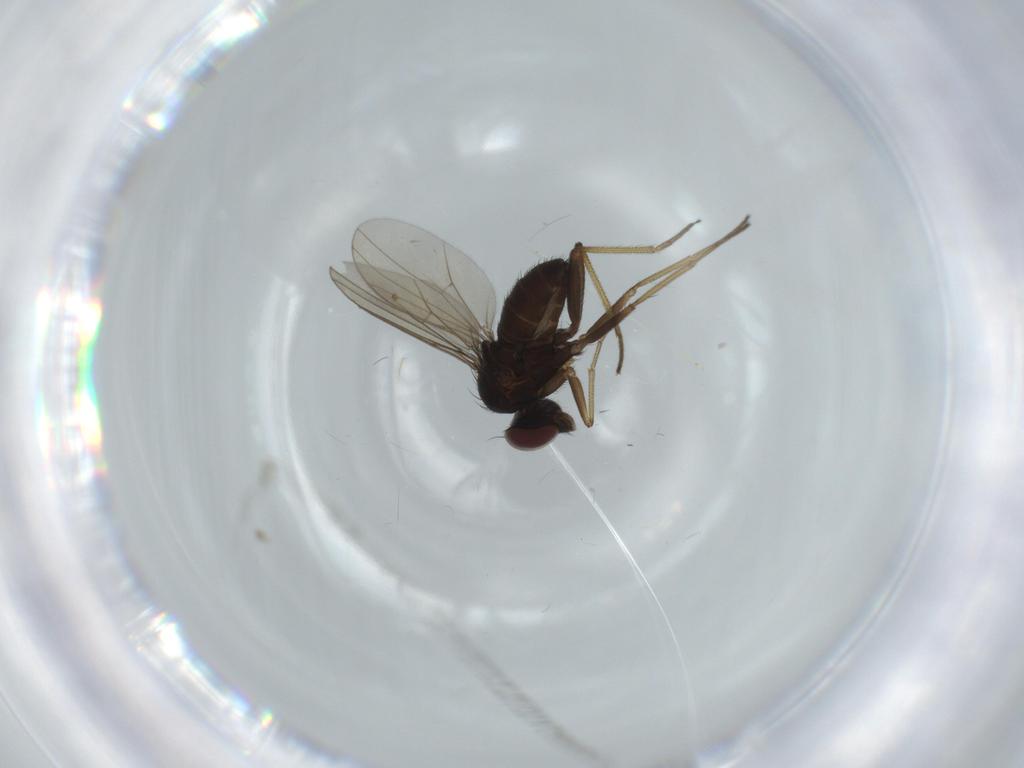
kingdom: Animalia
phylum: Arthropoda
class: Insecta
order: Diptera
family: Dolichopodidae
